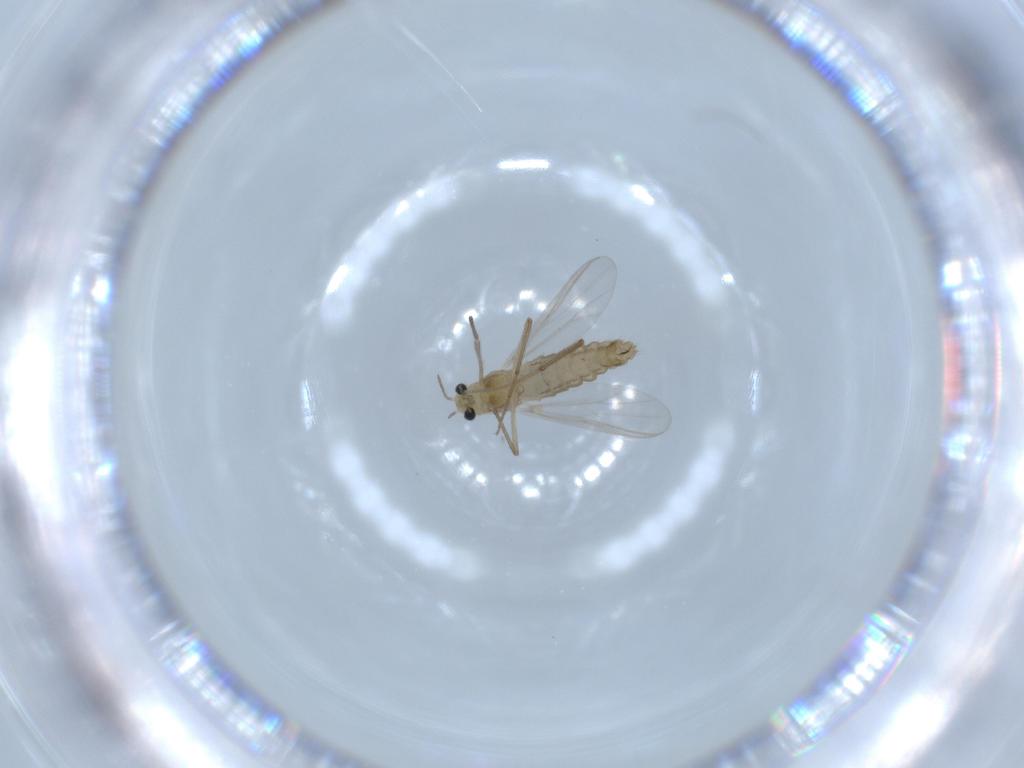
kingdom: Animalia
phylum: Arthropoda
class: Insecta
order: Diptera
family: Chironomidae
